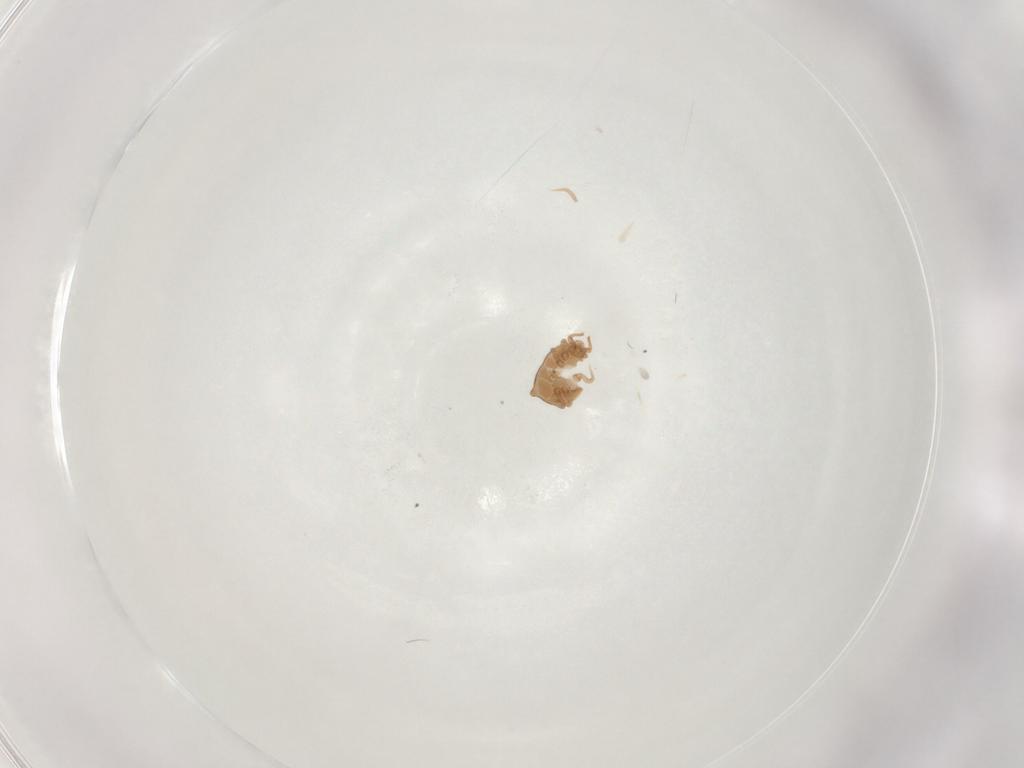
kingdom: Animalia
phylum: Arthropoda
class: Arachnida
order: Mesostigmata
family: Polyaspididae
